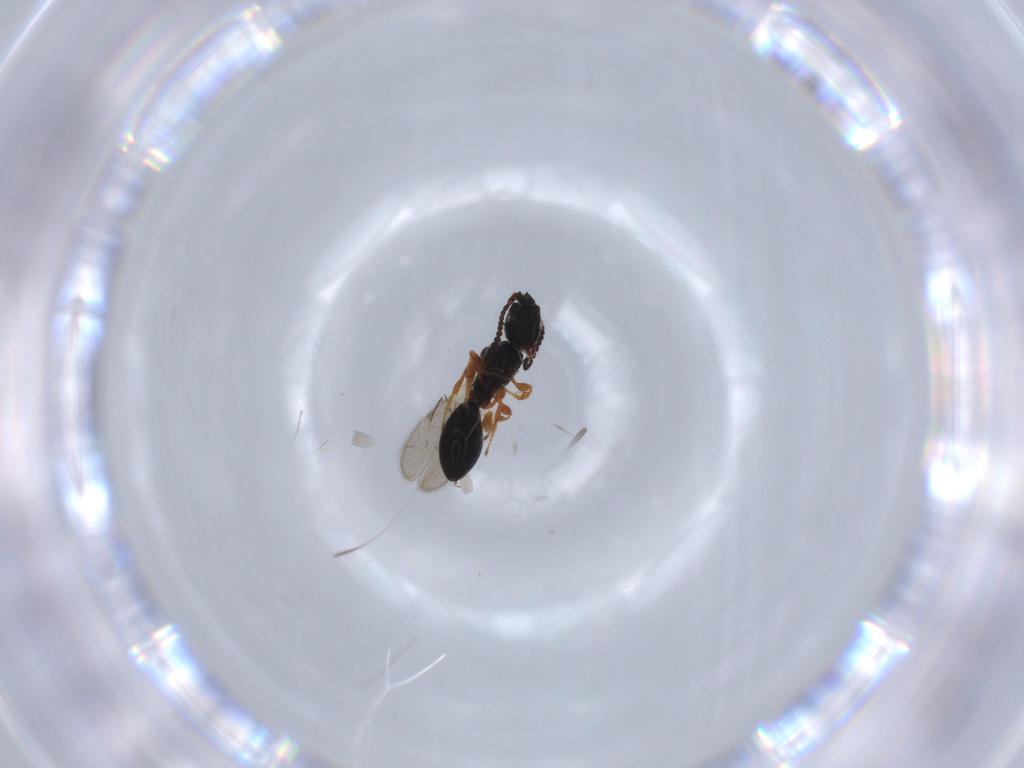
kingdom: Animalia
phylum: Arthropoda
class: Insecta
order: Hymenoptera
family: Diapriidae
